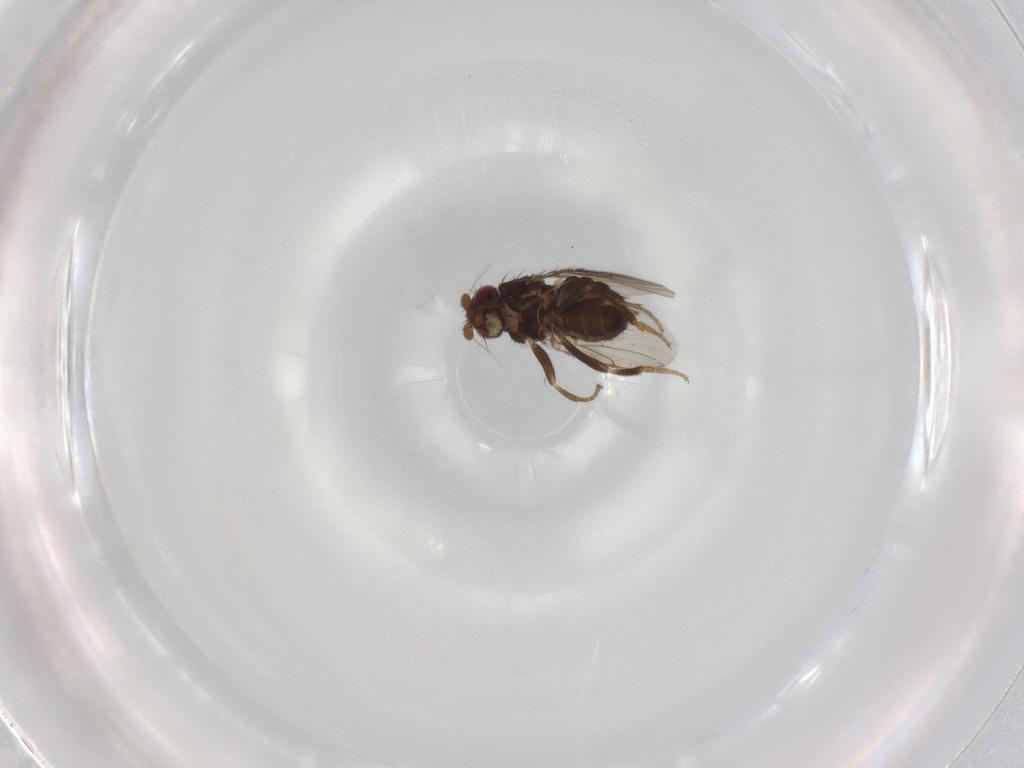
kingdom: Animalia
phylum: Arthropoda
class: Insecta
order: Diptera
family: Sphaeroceridae
